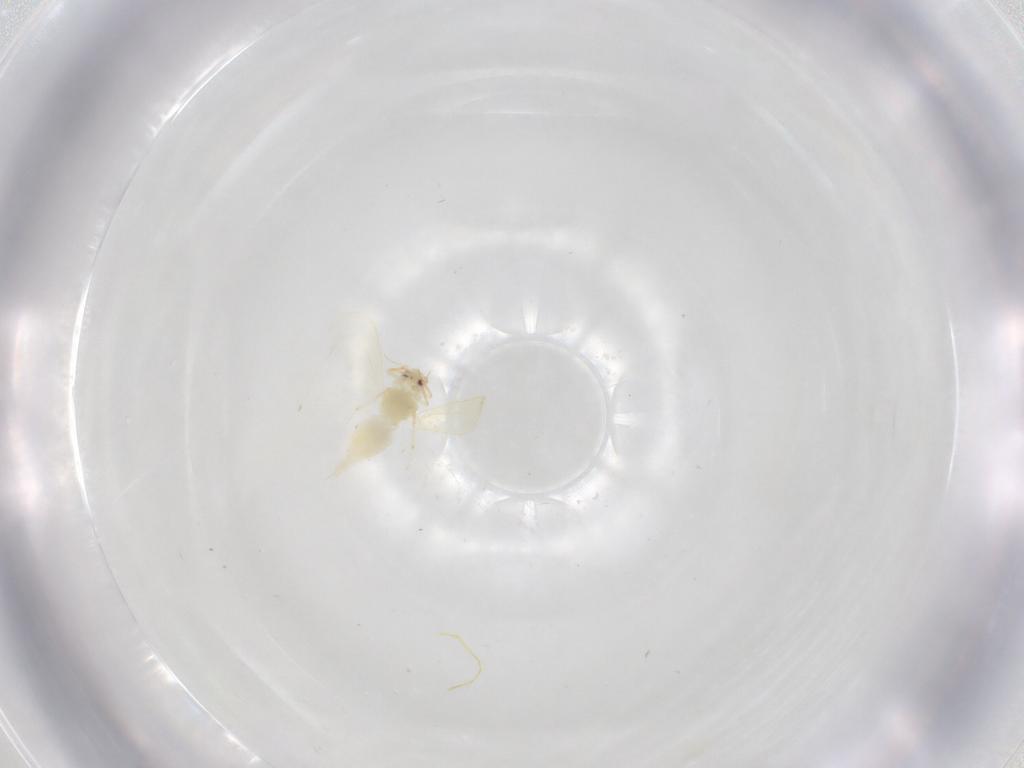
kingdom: Animalia
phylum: Arthropoda
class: Insecta
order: Hemiptera
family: Aleyrodidae
